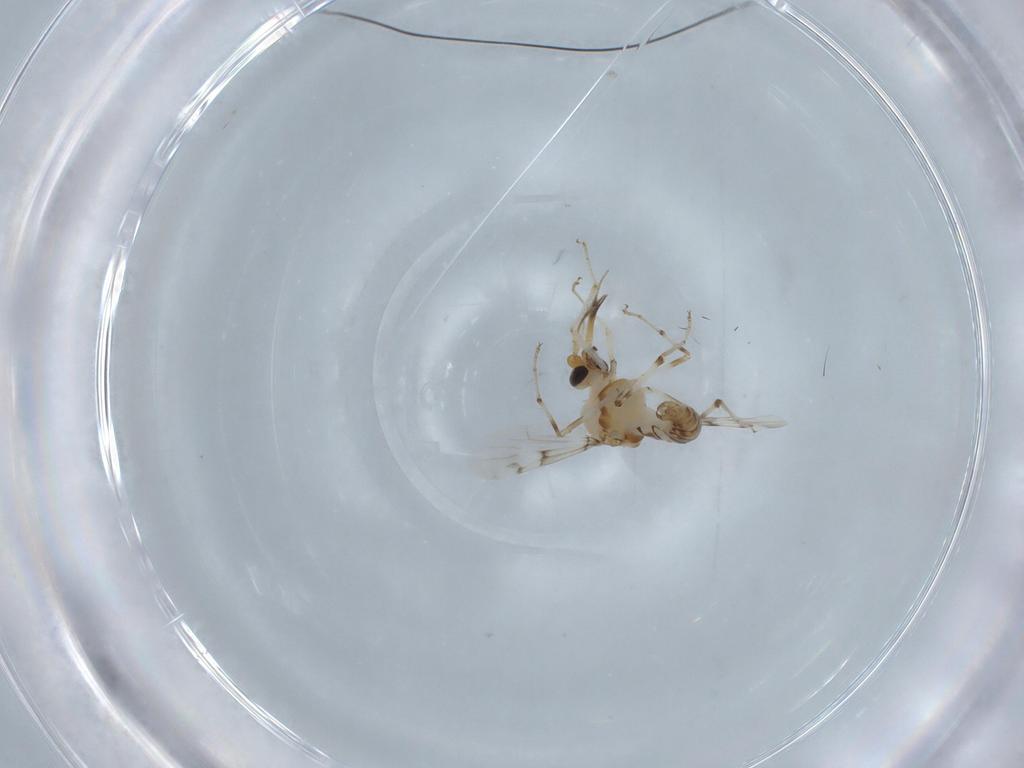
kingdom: Animalia
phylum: Arthropoda
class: Insecta
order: Diptera
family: Ceratopogonidae
